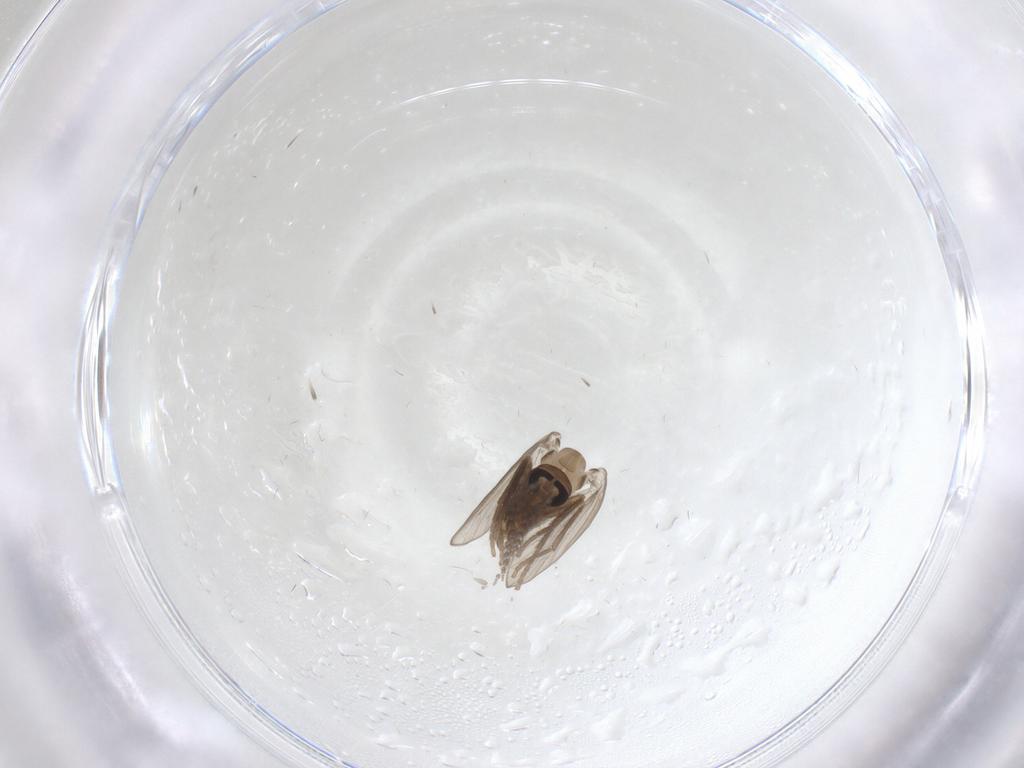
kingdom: Animalia
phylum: Arthropoda
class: Insecta
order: Diptera
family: Psychodidae
